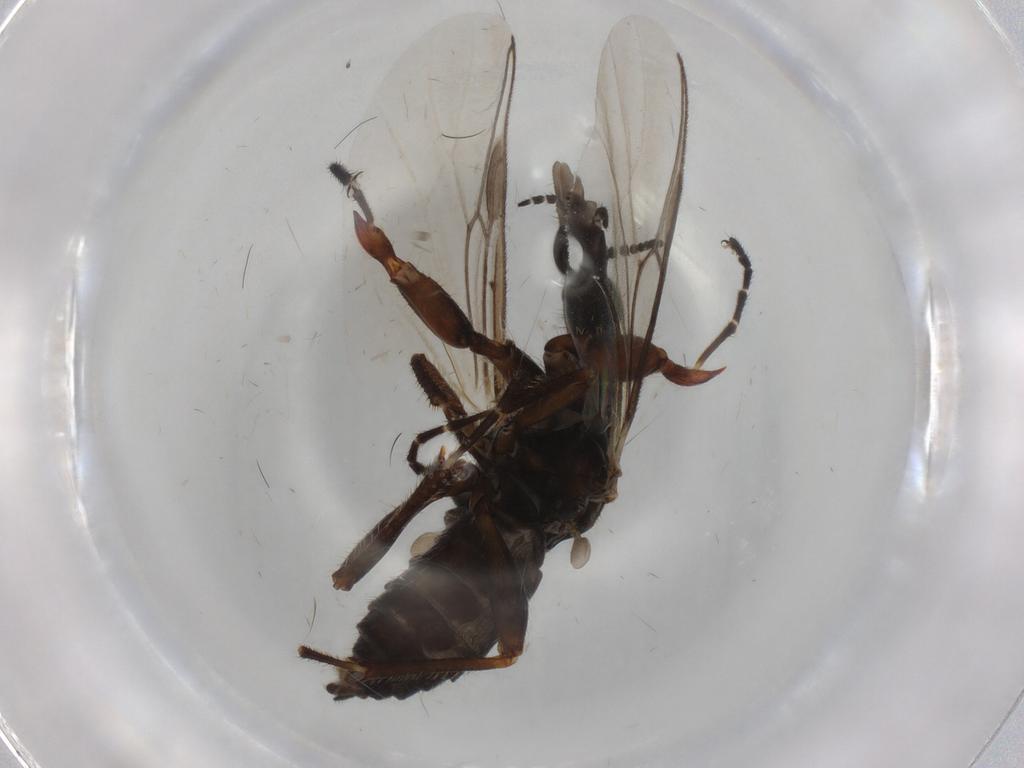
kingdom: Animalia
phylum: Arthropoda
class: Insecta
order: Diptera
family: Bibionidae
